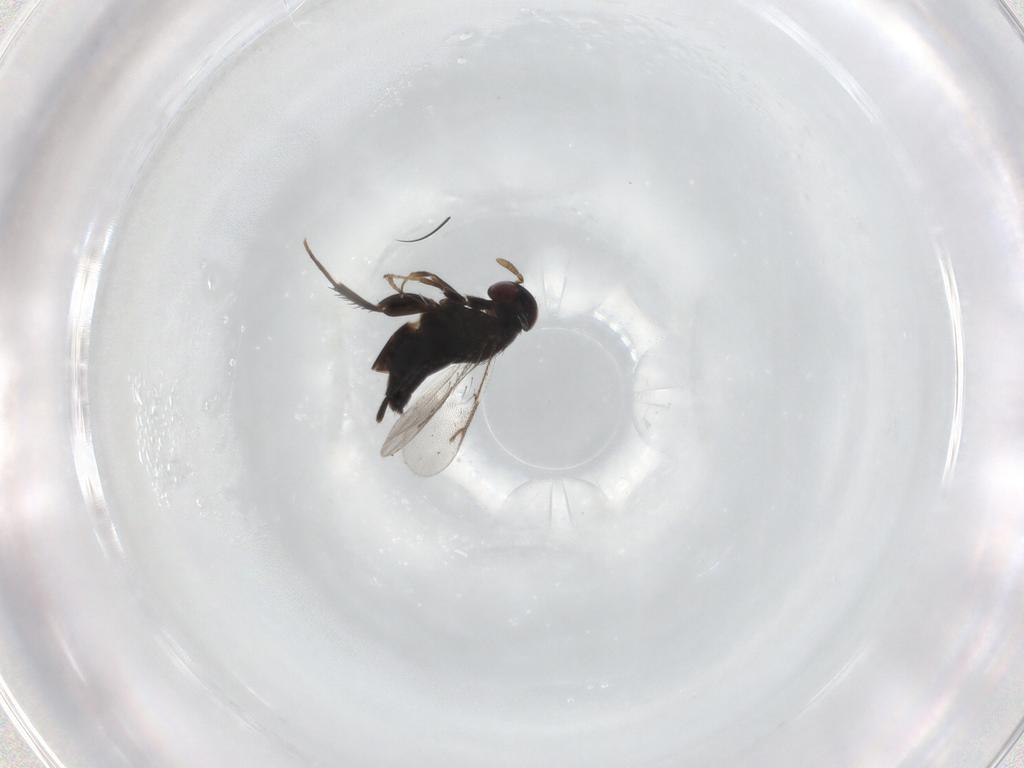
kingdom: Animalia
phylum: Arthropoda
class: Insecta
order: Hymenoptera
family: Pirenidae
